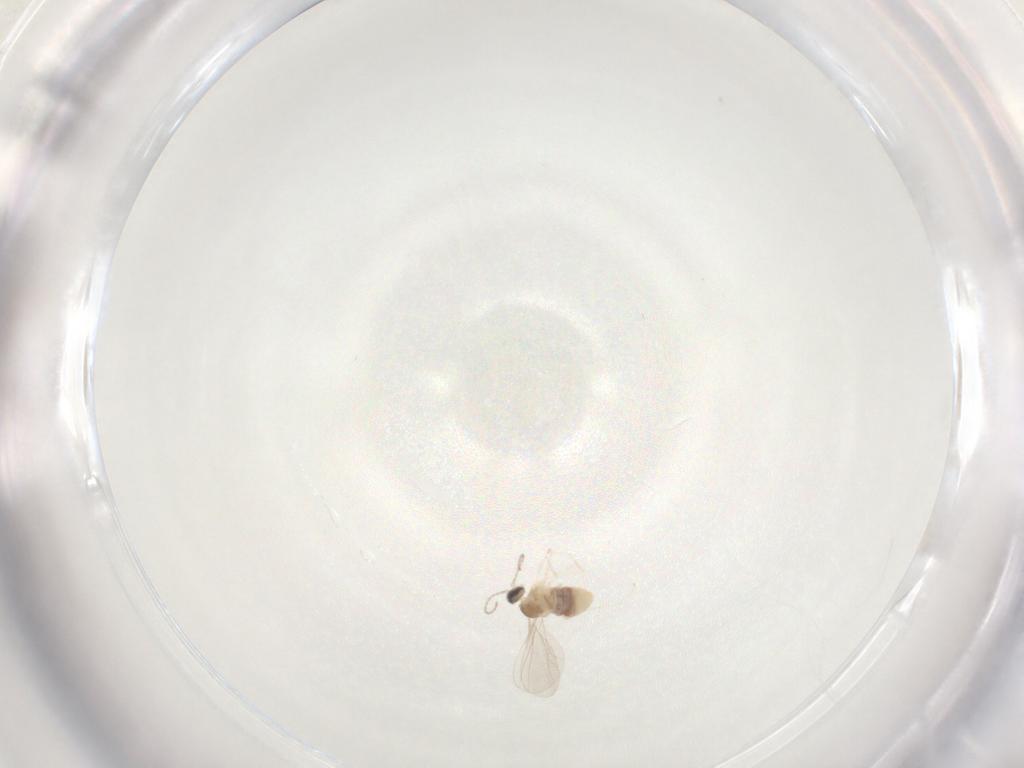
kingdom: Animalia
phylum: Arthropoda
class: Insecta
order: Diptera
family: Cecidomyiidae
